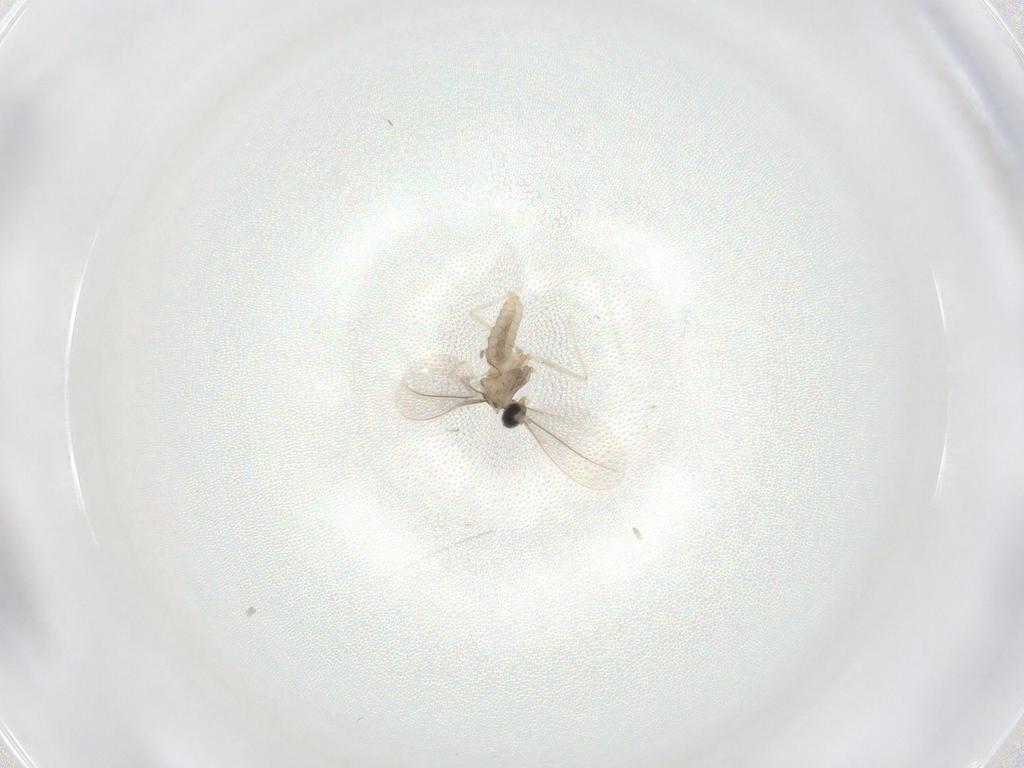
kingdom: Animalia
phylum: Arthropoda
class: Insecta
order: Diptera
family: Cecidomyiidae
